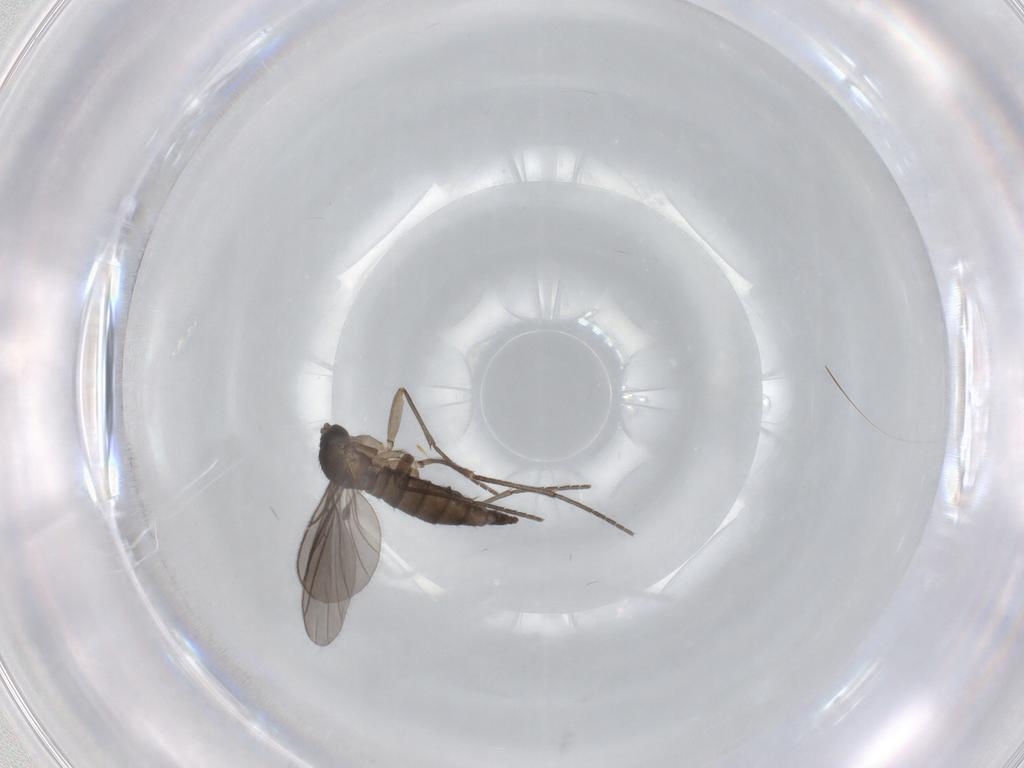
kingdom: Animalia
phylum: Arthropoda
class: Insecta
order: Diptera
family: Sciaridae
